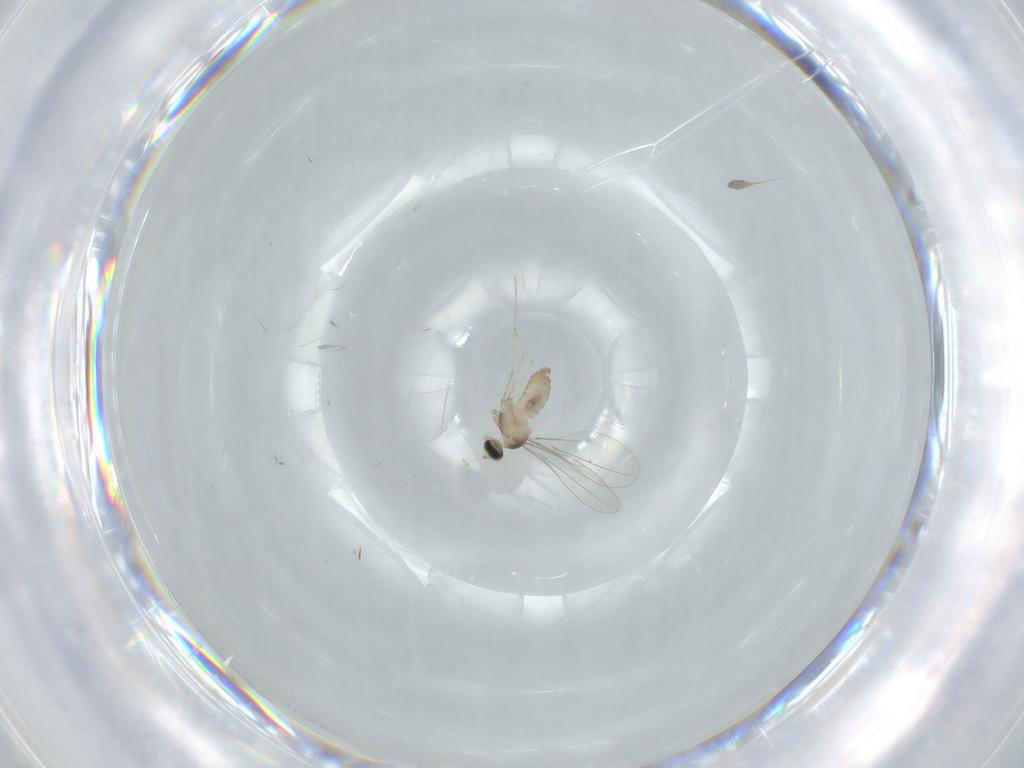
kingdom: Animalia
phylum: Arthropoda
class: Insecta
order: Diptera
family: Cecidomyiidae
